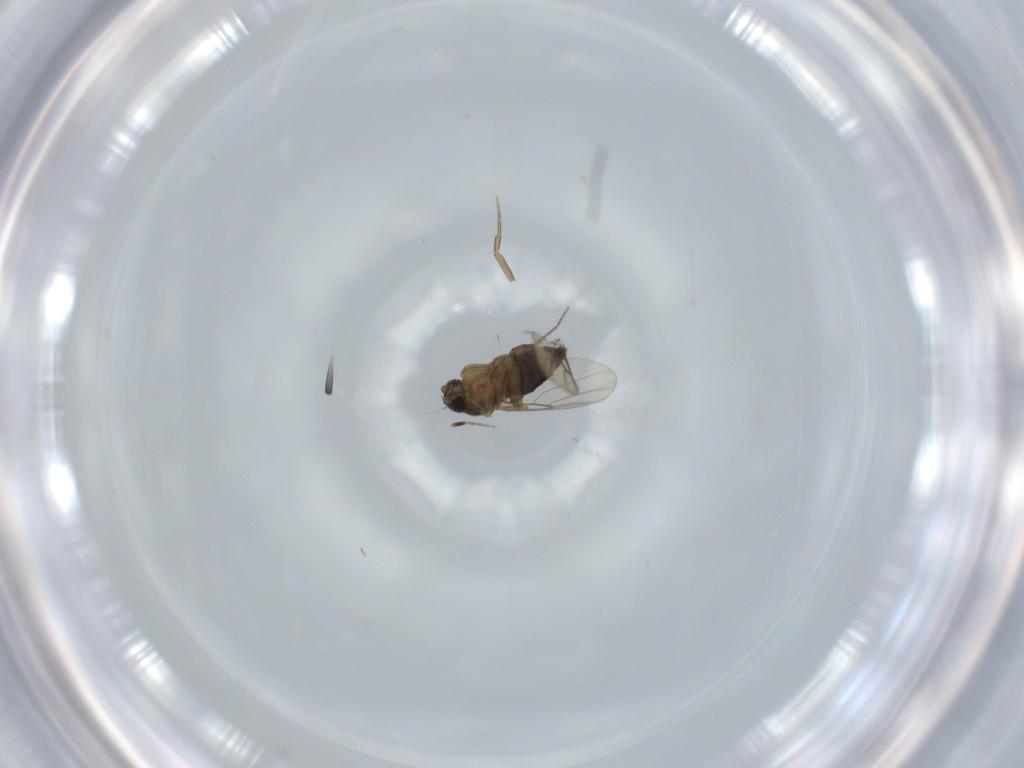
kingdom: Animalia
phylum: Arthropoda
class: Insecta
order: Diptera
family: Phoridae
